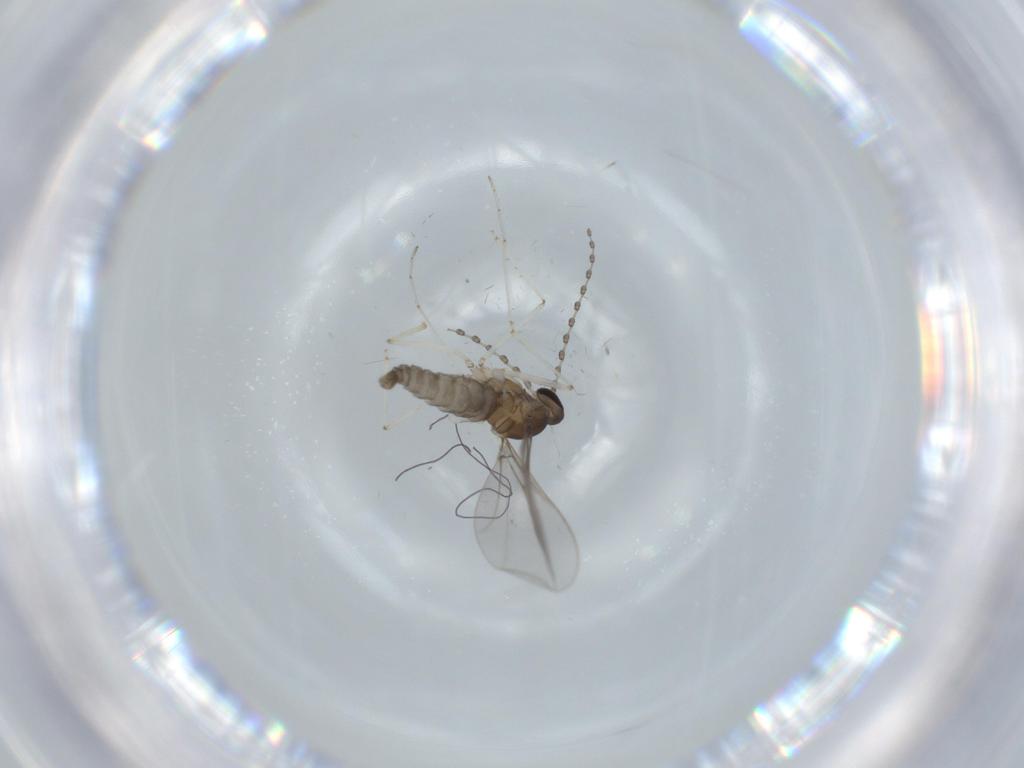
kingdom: Animalia
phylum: Arthropoda
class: Insecta
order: Diptera
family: Cecidomyiidae
